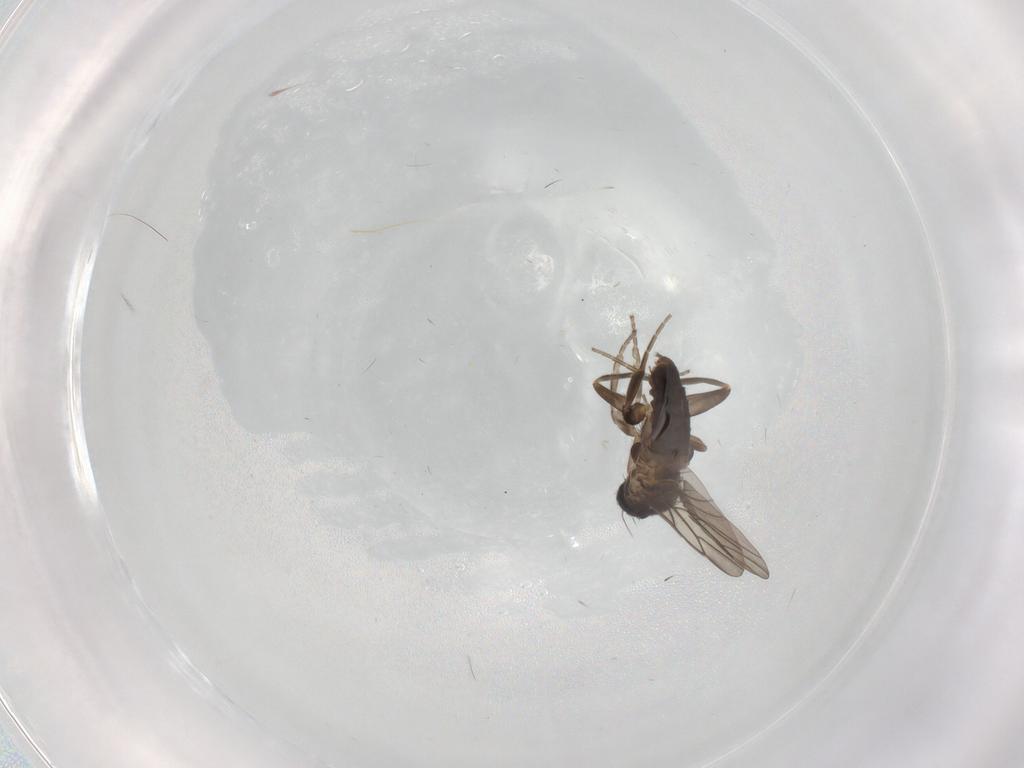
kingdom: Animalia
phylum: Arthropoda
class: Insecta
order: Diptera
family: Phoridae
